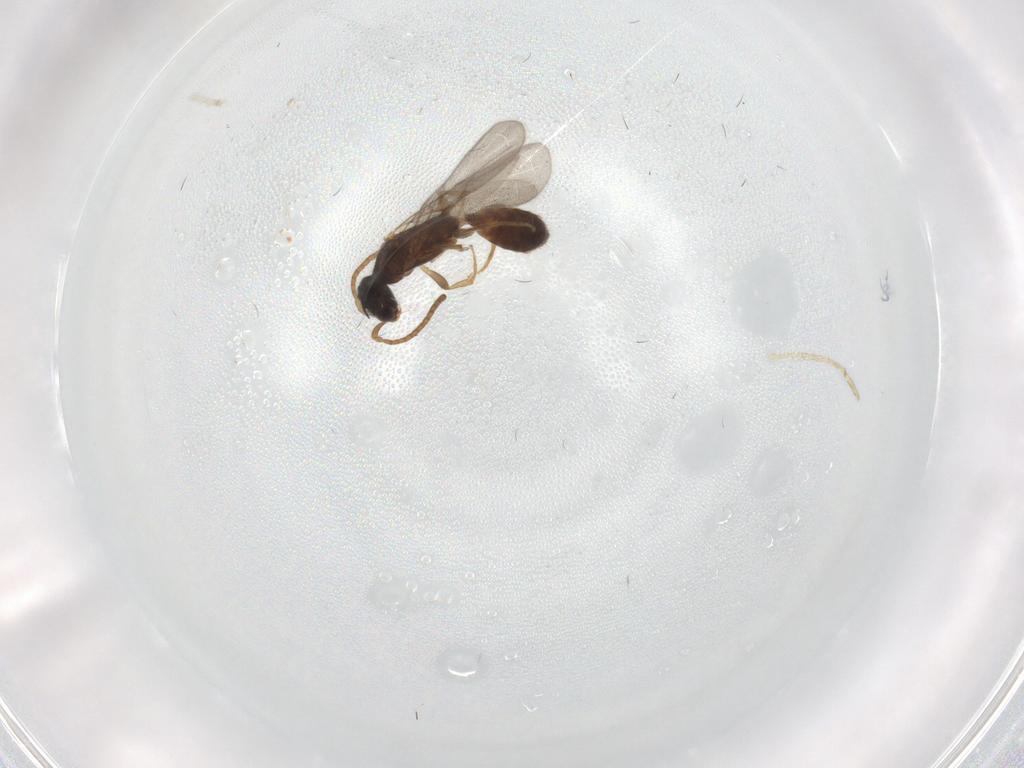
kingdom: Animalia
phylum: Arthropoda
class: Insecta
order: Hymenoptera
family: Bethylidae
